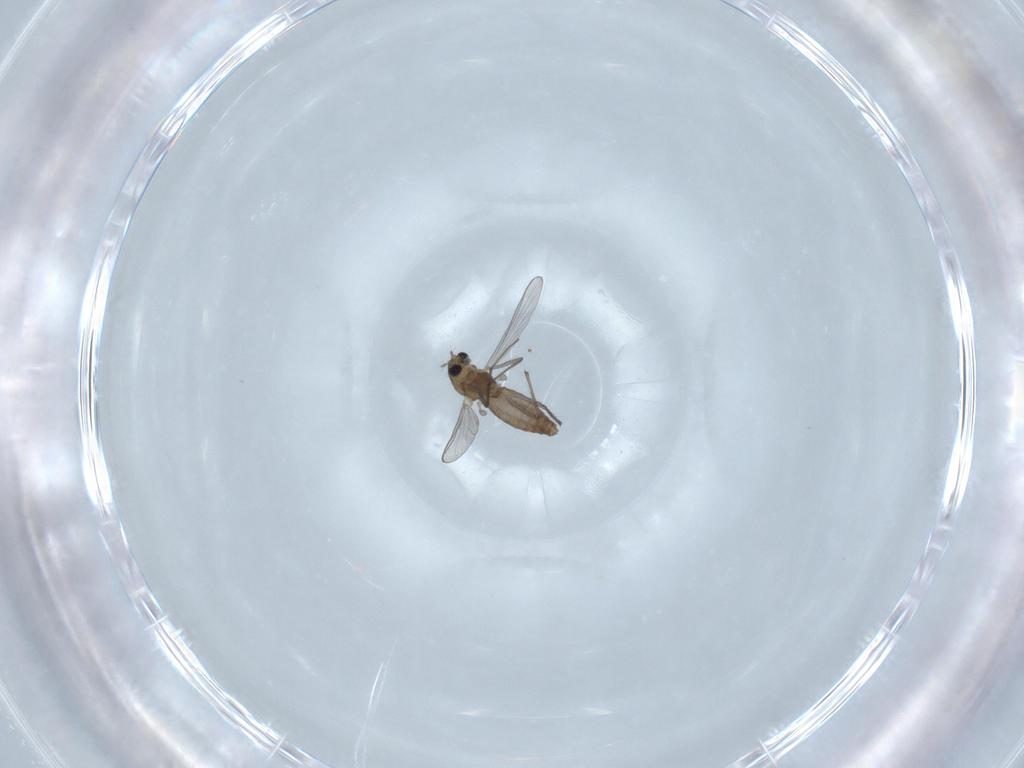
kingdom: Animalia
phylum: Arthropoda
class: Insecta
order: Diptera
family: Chironomidae
